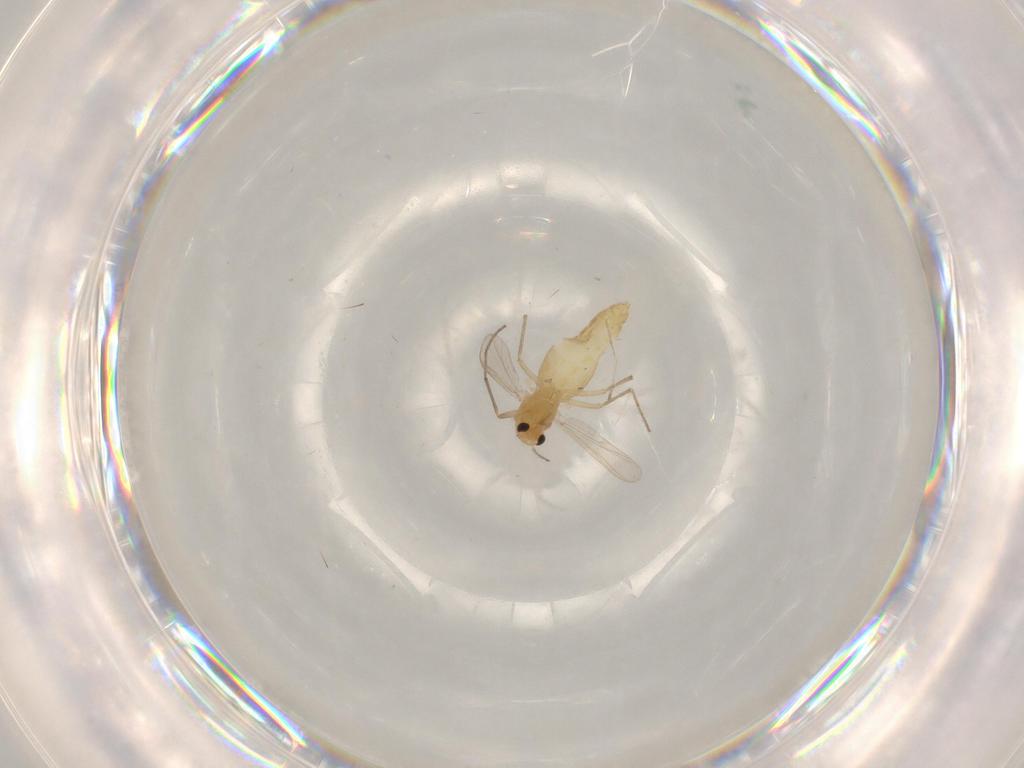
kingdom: Animalia
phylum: Arthropoda
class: Insecta
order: Diptera
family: Chironomidae
